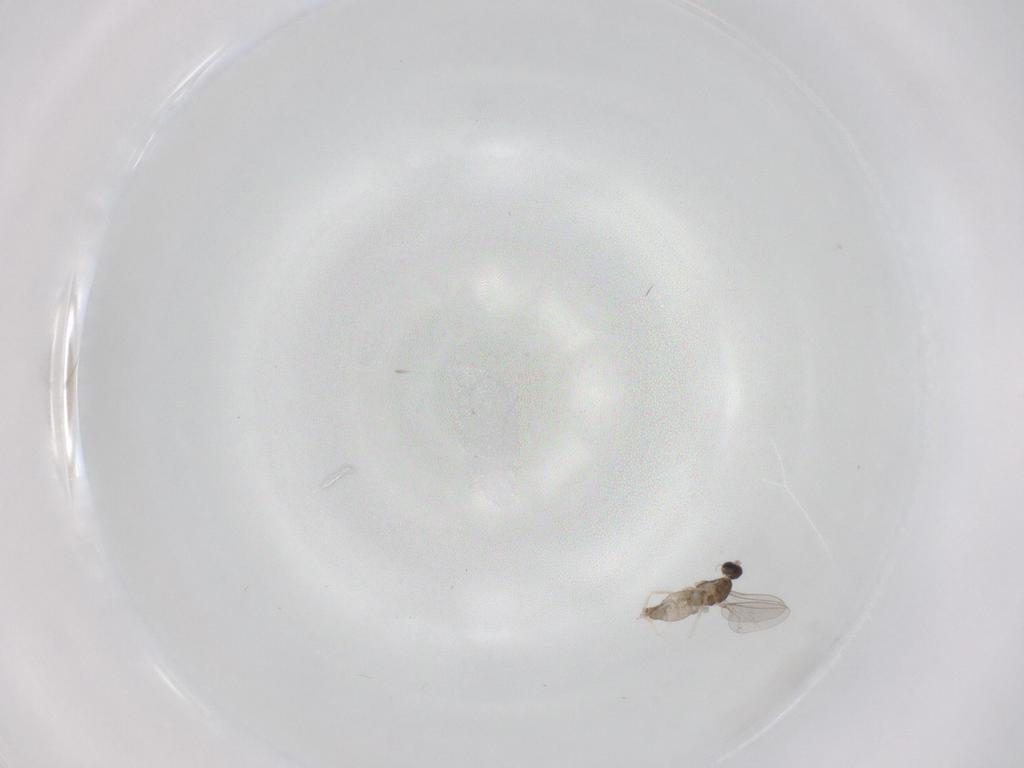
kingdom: Animalia
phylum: Arthropoda
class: Insecta
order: Diptera
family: Cecidomyiidae
